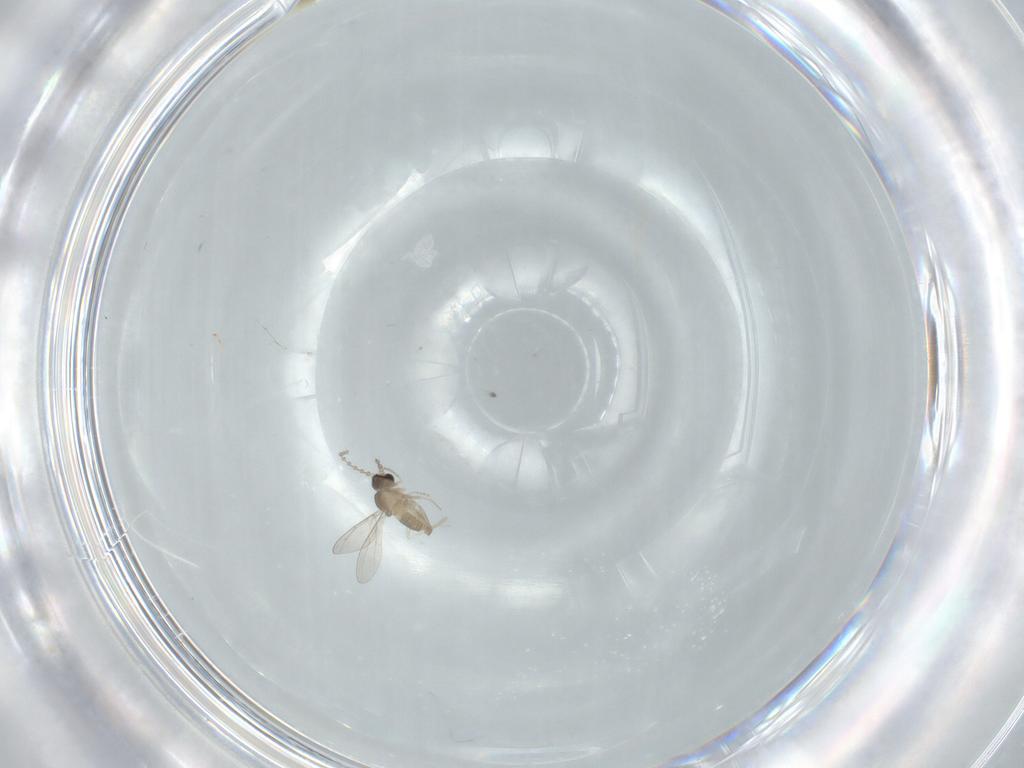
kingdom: Animalia
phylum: Arthropoda
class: Insecta
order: Diptera
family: Cecidomyiidae
